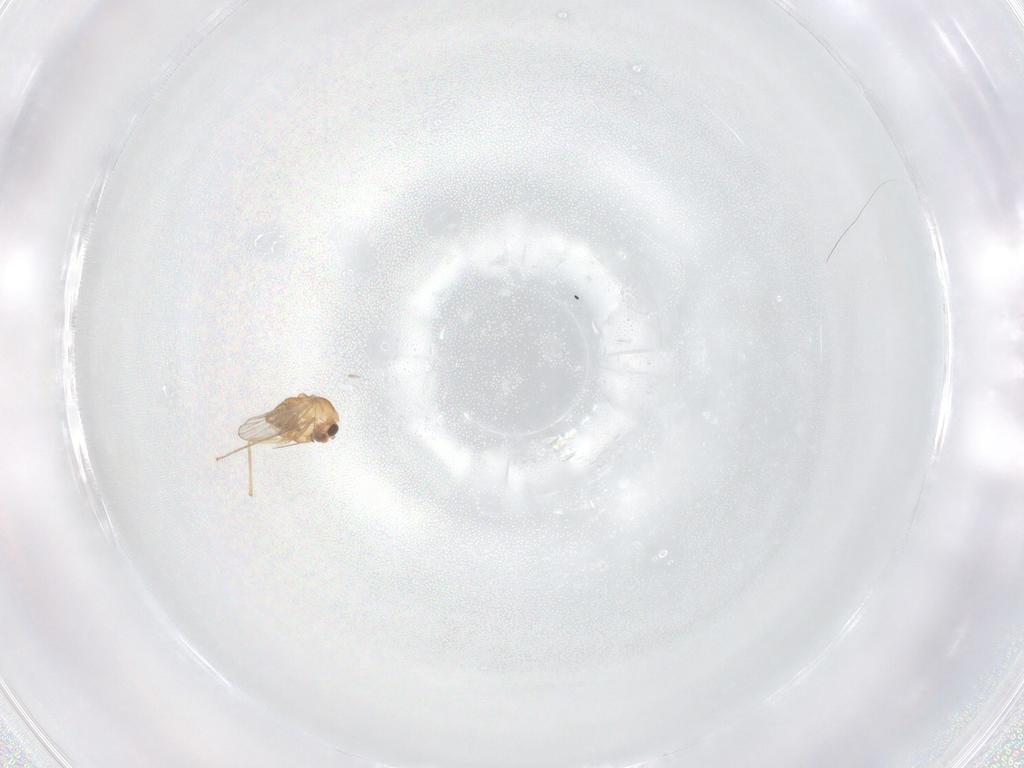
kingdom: Animalia
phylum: Arthropoda
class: Insecta
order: Diptera
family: Chironomidae
